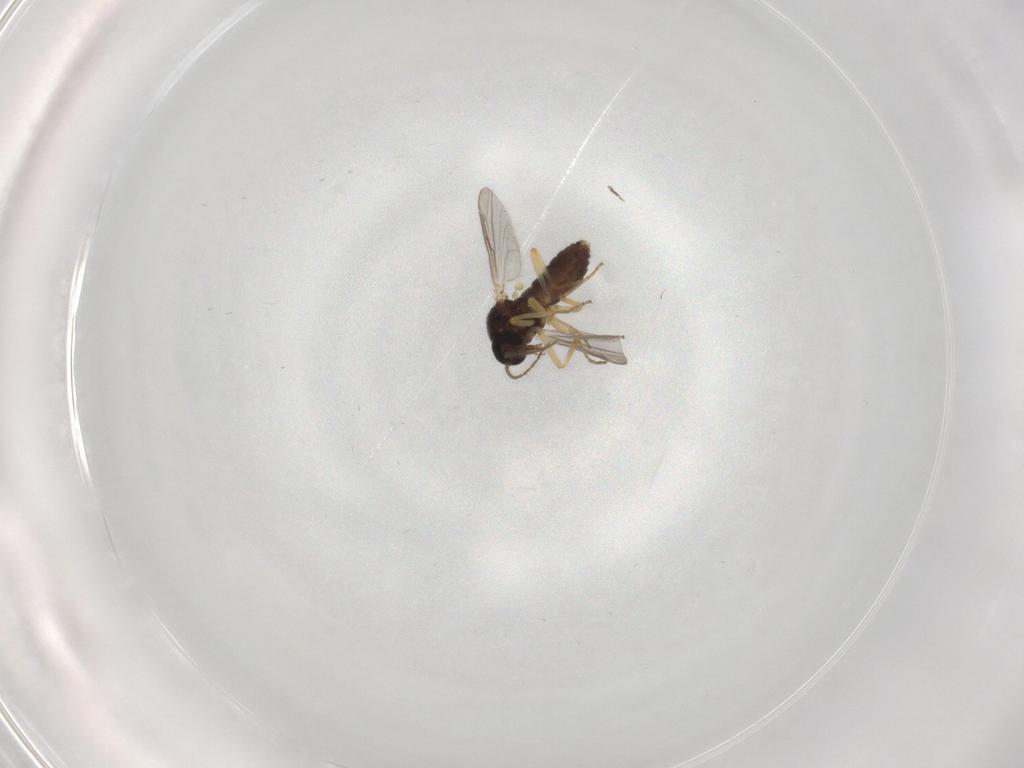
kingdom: Animalia
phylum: Arthropoda
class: Insecta
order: Diptera
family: Ceratopogonidae
